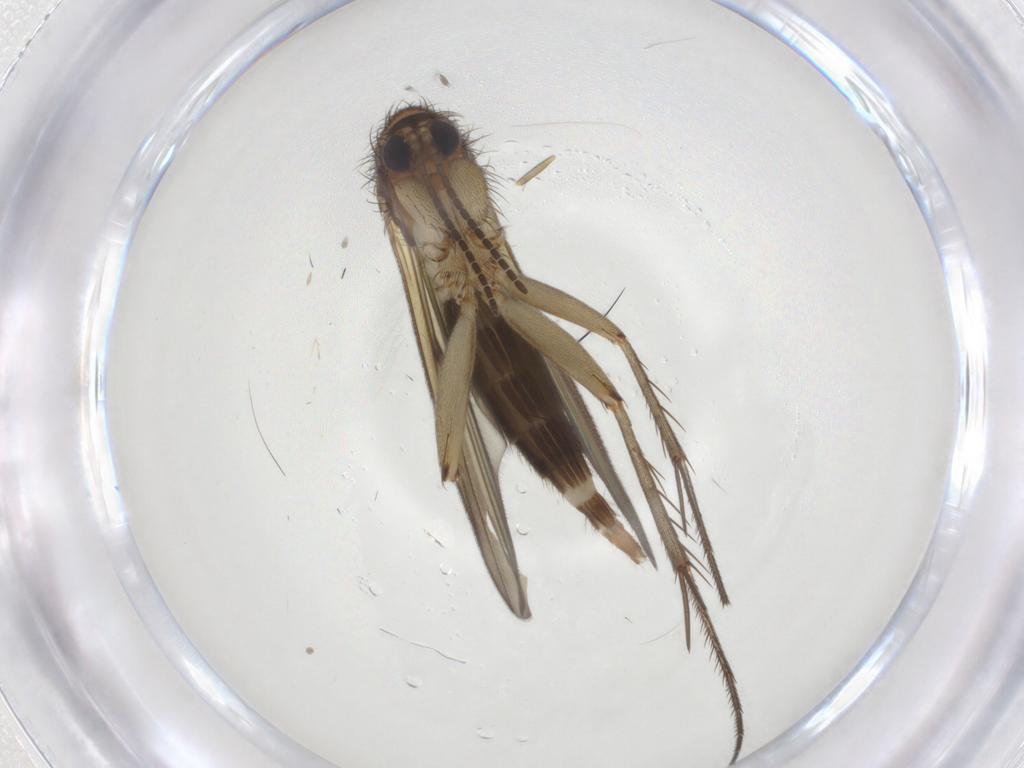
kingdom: Animalia
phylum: Arthropoda
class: Insecta
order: Diptera
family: Mycetophilidae
